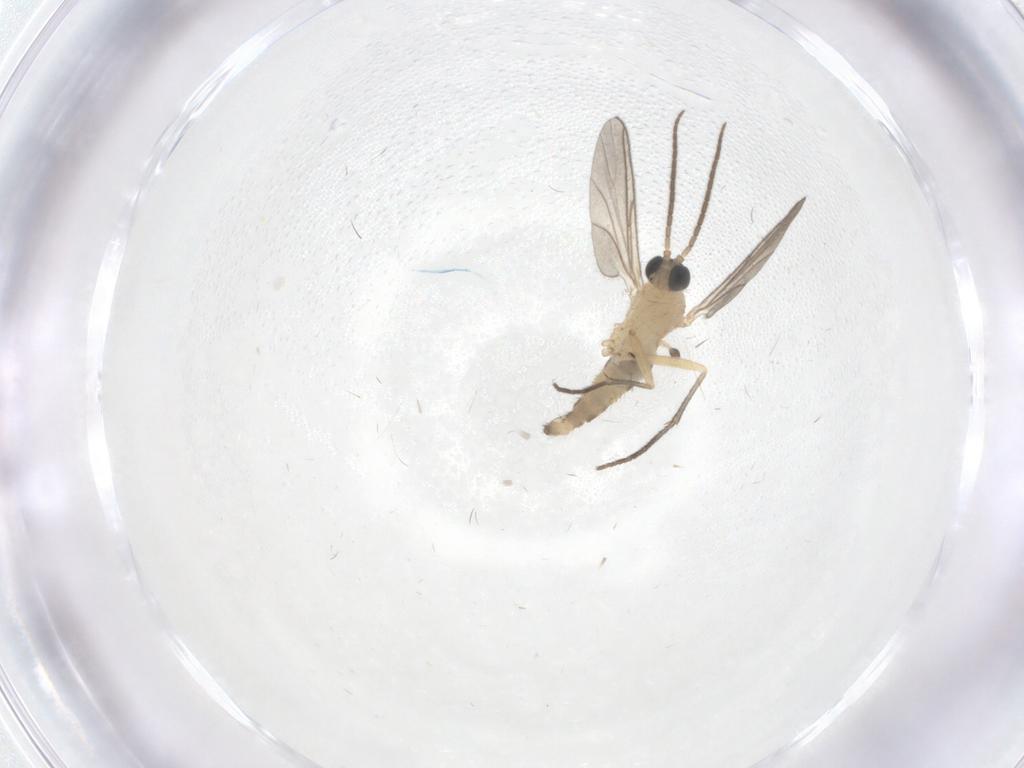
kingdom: Animalia
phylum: Arthropoda
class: Insecta
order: Diptera
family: Sciaridae
